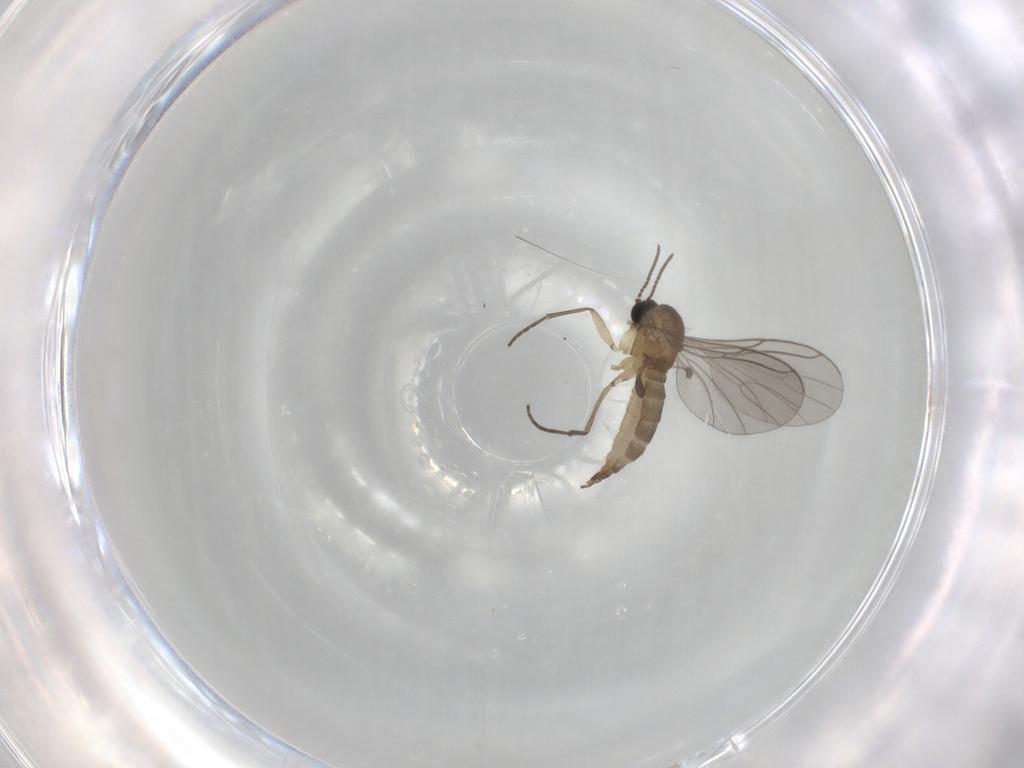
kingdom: Animalia
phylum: Arthropoda
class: Insecta
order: Diptera
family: Sciaridae
